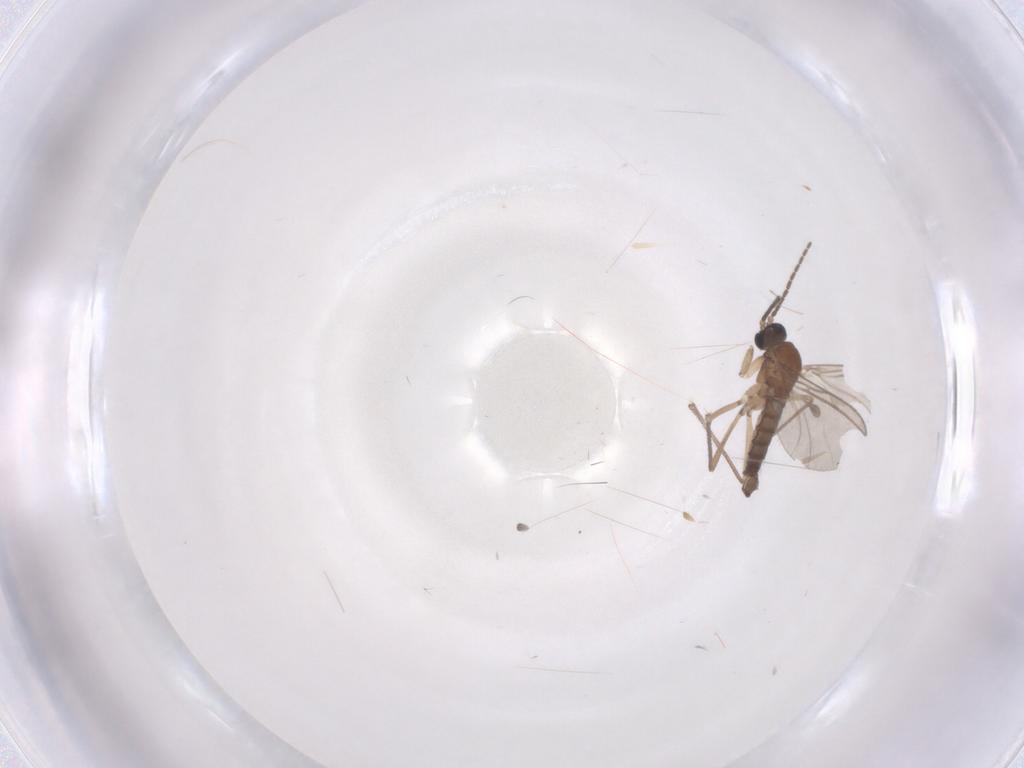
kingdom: Animalia
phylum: Arthropoda
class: Insecta
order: Diptera
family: Sciaridae
